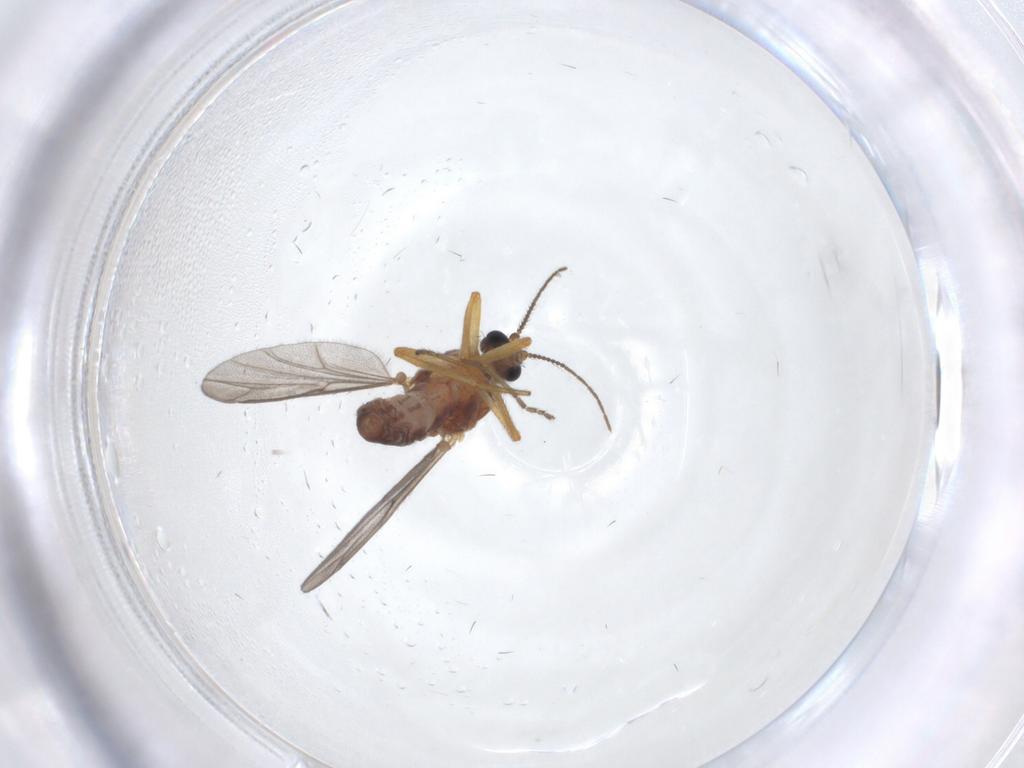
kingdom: Animalia
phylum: Arthropoda
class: Insecta
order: Diptera
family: Ceratopogonidae
